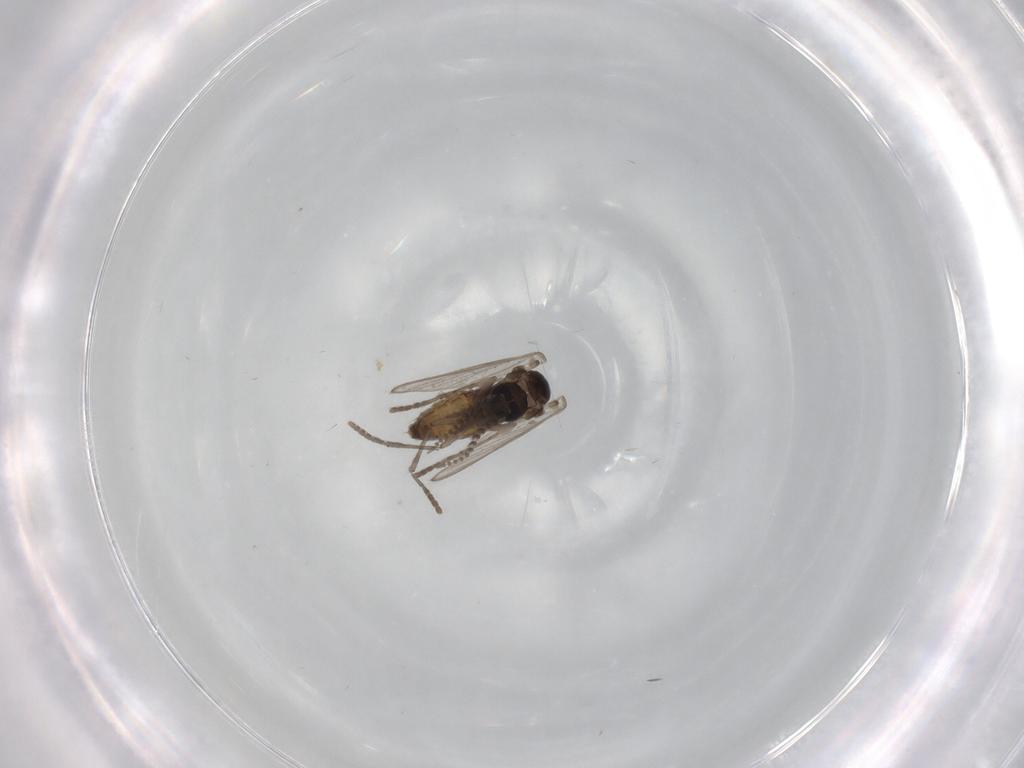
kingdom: Animalia
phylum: Arthropoda
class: Insecta
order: Diptera
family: Psychodidae
